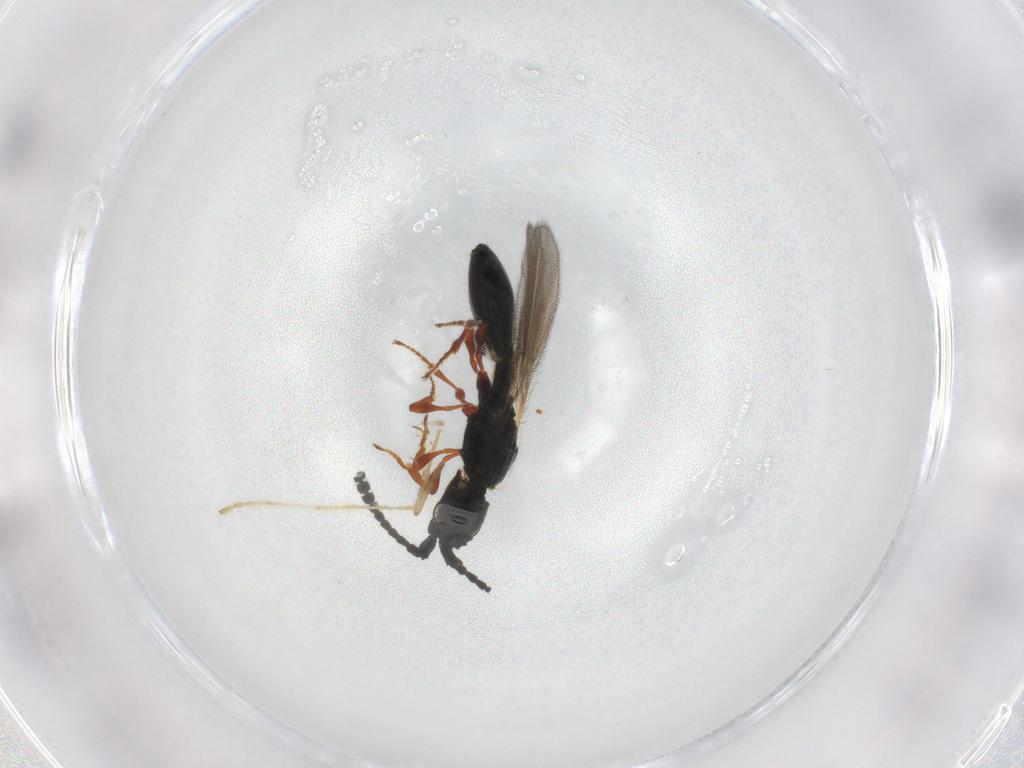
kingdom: Animalia
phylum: Arthropoda
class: Insecta
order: Hymenoptera
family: Diapriidae
